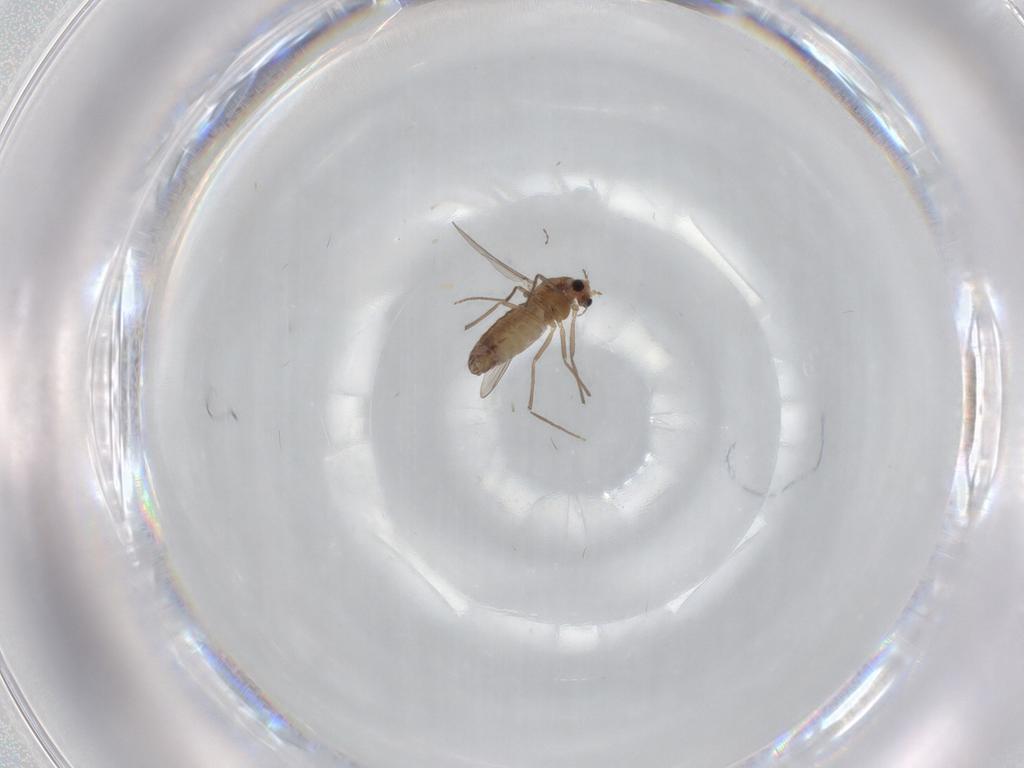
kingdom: Animalia
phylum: Arthropoda
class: Insecta
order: Diptera
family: Chironomidae
